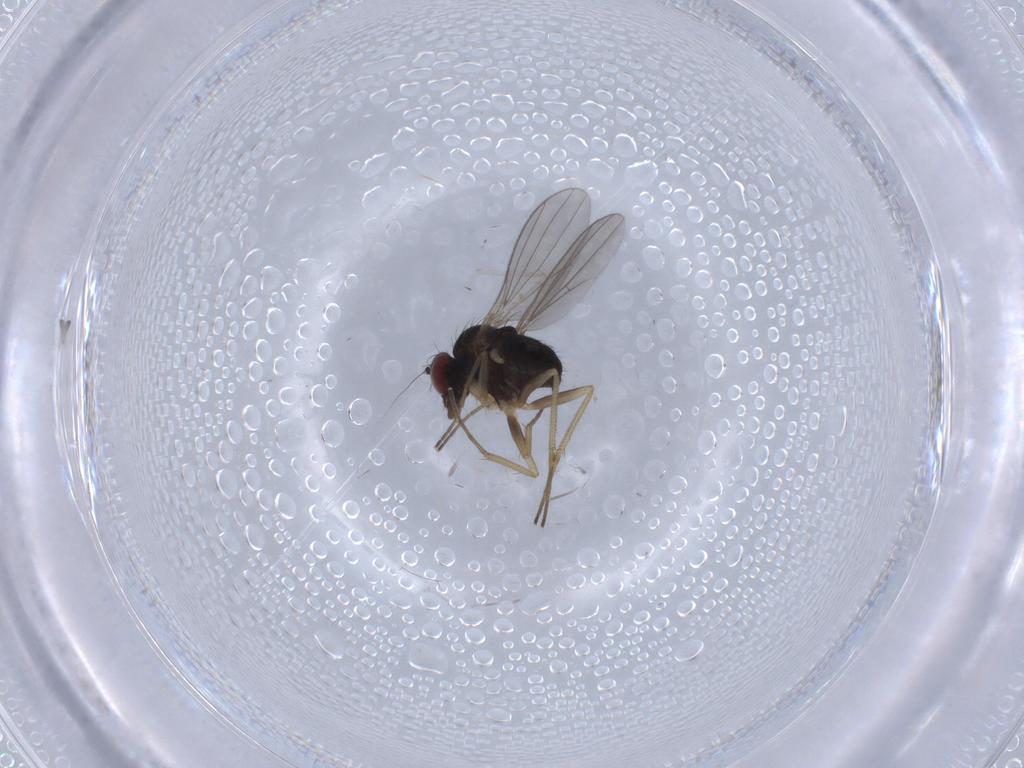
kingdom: Animalia
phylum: Arthropoda
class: Insecta
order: Diptera
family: Dolichopodidae
